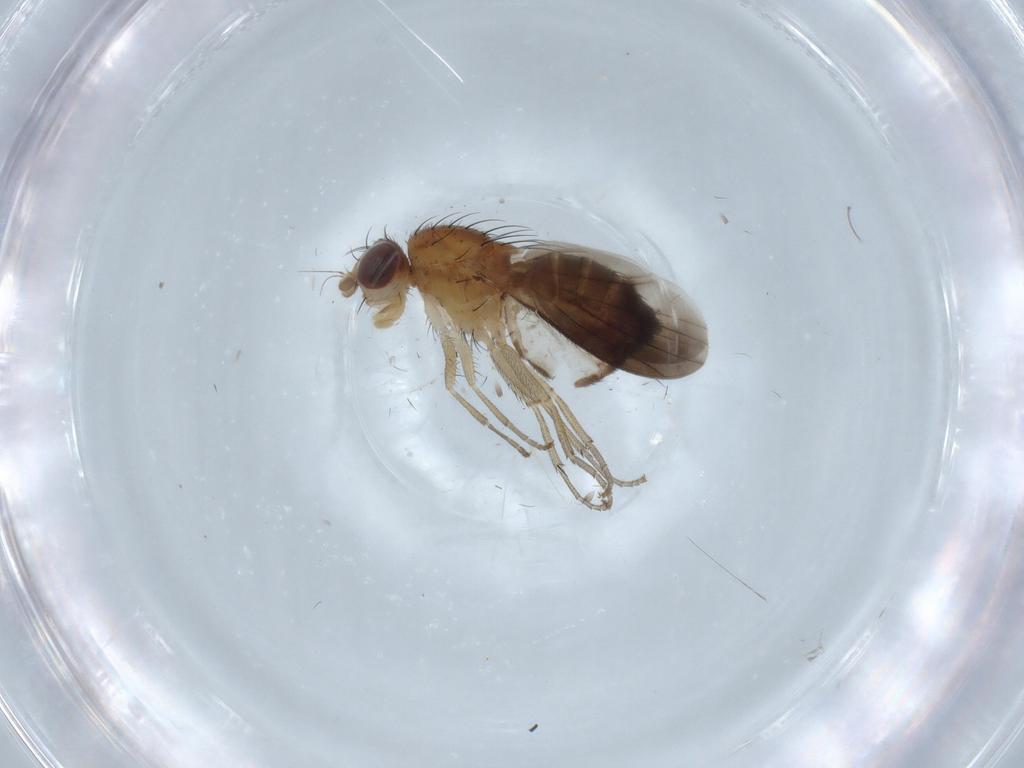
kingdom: Animalia
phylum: Arthropoda
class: Insecta
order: Diptera
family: Heleomyzidae
